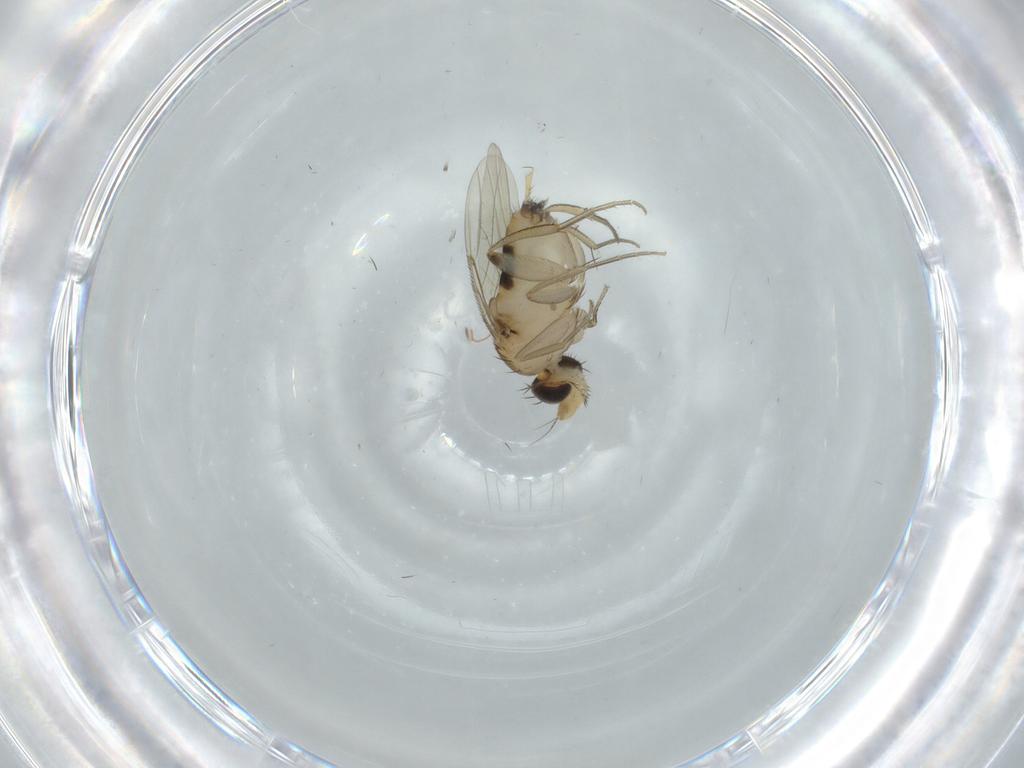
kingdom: Animalia
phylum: Arthropoda
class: Insecta
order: Diptera
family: Phoridae
